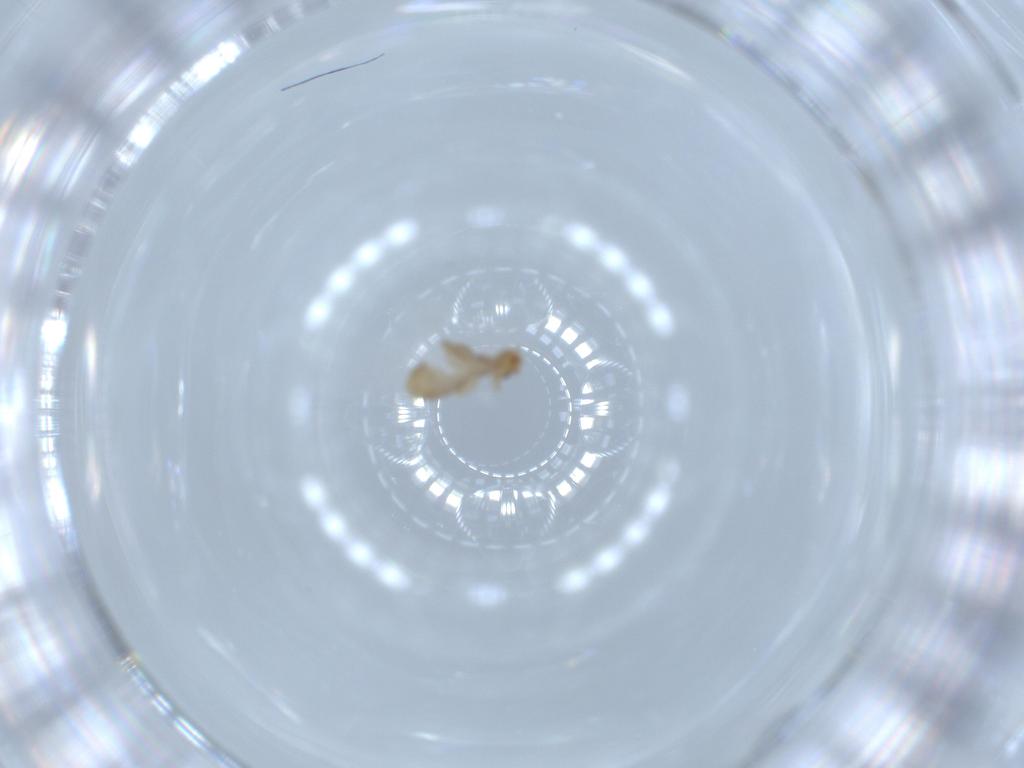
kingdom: Animalia
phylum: Arthropoda
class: Insecta
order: Psocodea
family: Liposcelididae
